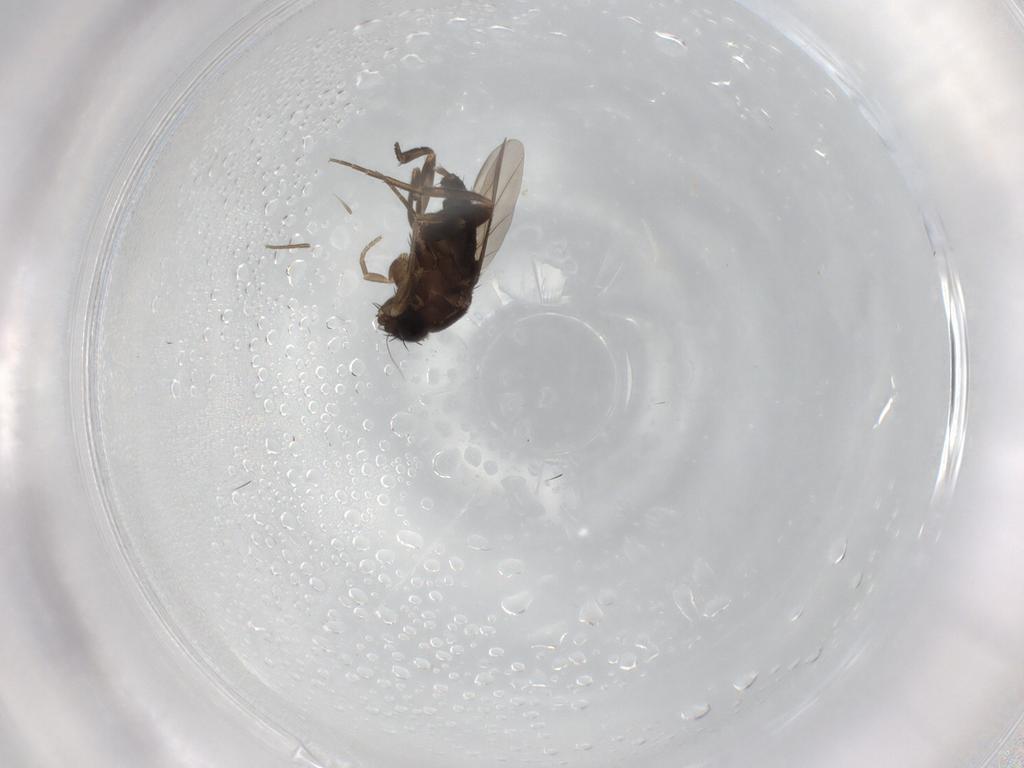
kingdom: Animalia
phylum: Arthropoda
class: Insecta
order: Diptera
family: Phoridae
